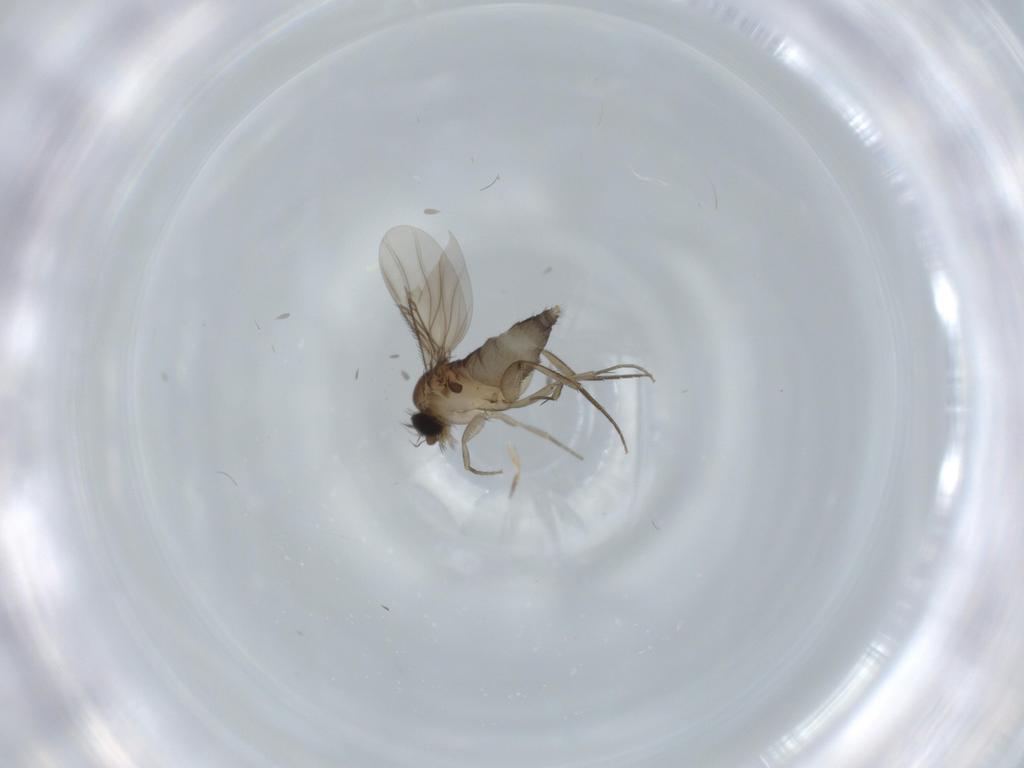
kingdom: Animalia
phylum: Arthropoda
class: Insecta
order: Diptera
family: Phoridae
